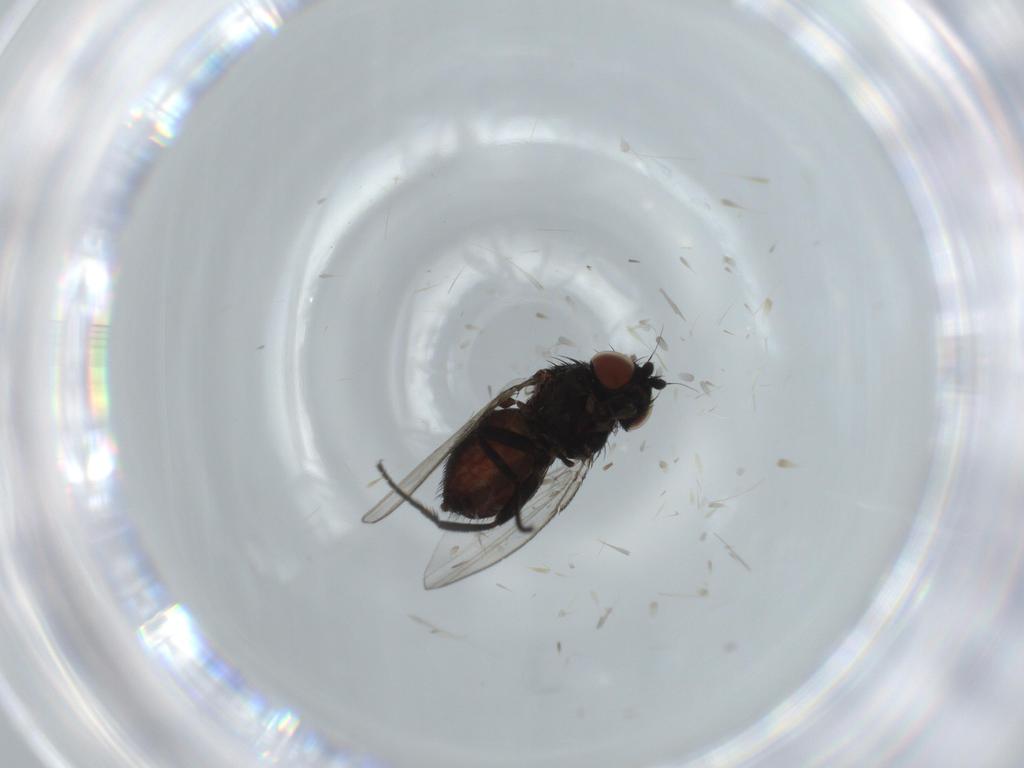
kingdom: Animalia
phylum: Arthropoda
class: Insecta
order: Diptera
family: Milichiidae
